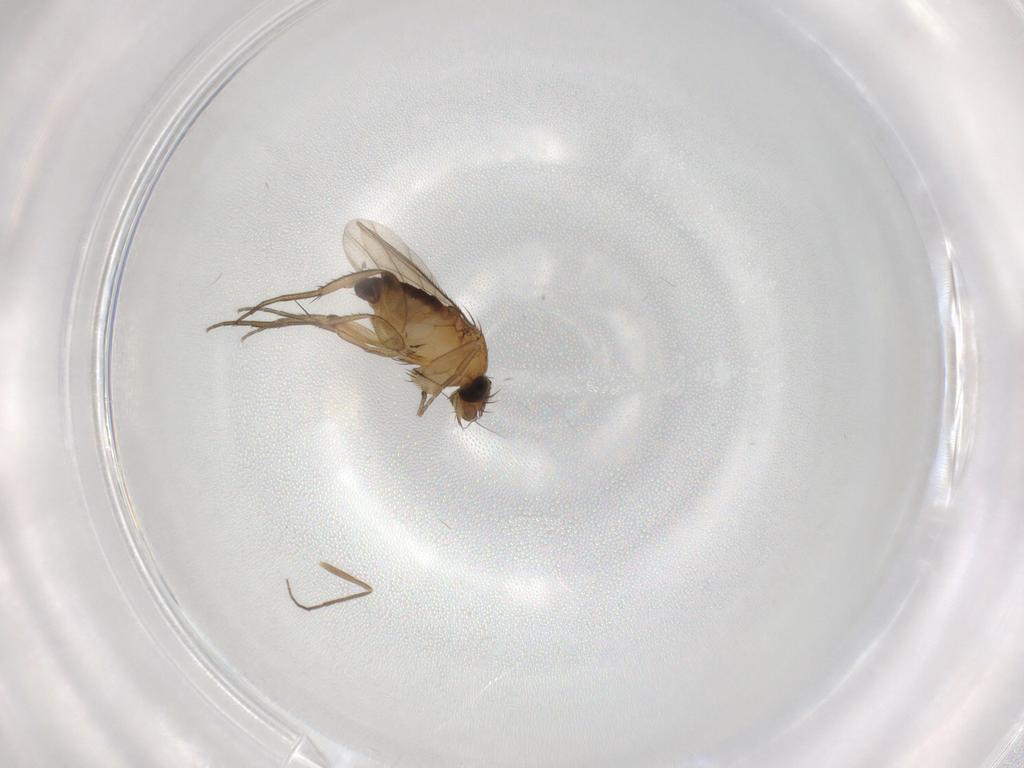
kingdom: Animalia
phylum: Arthropoda
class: Insecta
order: Diptera
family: Phoridae
